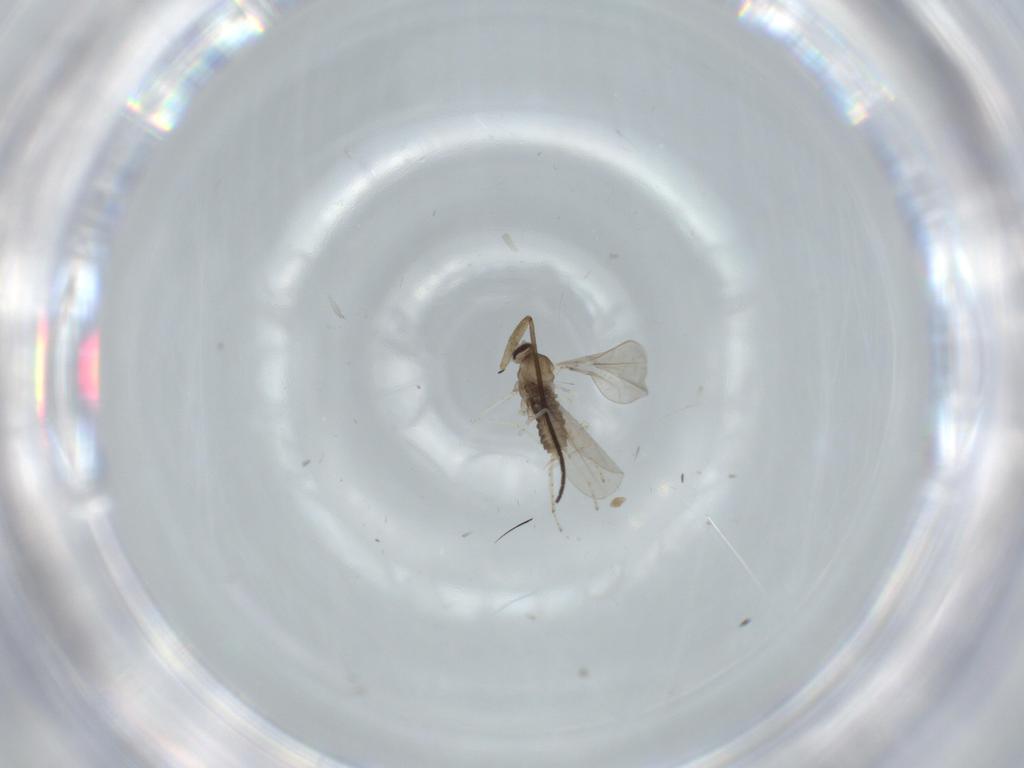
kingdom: Animalia
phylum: Arthropoda
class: Insecta
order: Diptera
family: Sciaridae
